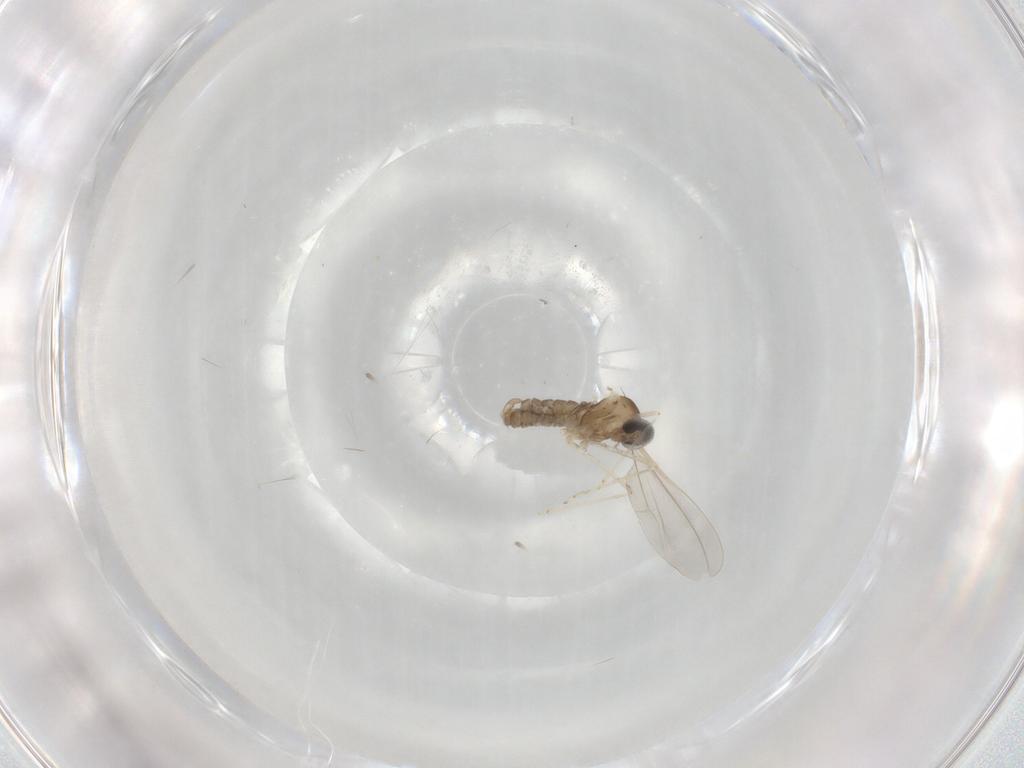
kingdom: Animalia
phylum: Arthropoda
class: Insecta
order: Diptera
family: Cecidomyiidae
